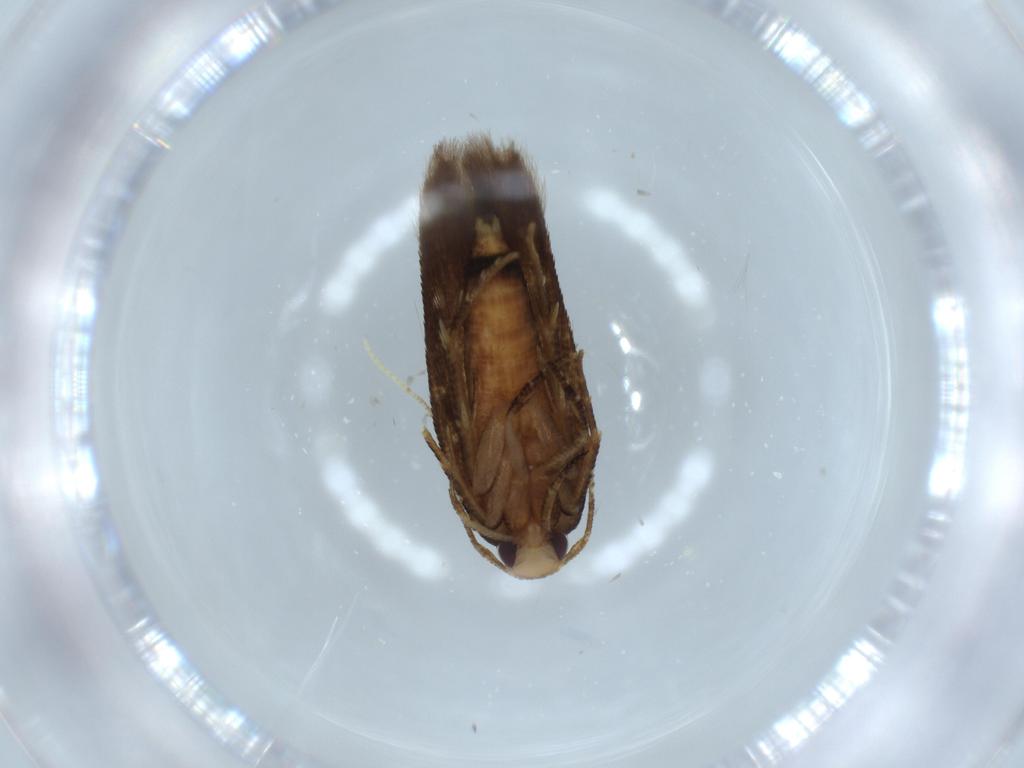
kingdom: Animalia
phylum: Arthropoda
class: Insecta
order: Lepidoptera
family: Cosmopterigidae
